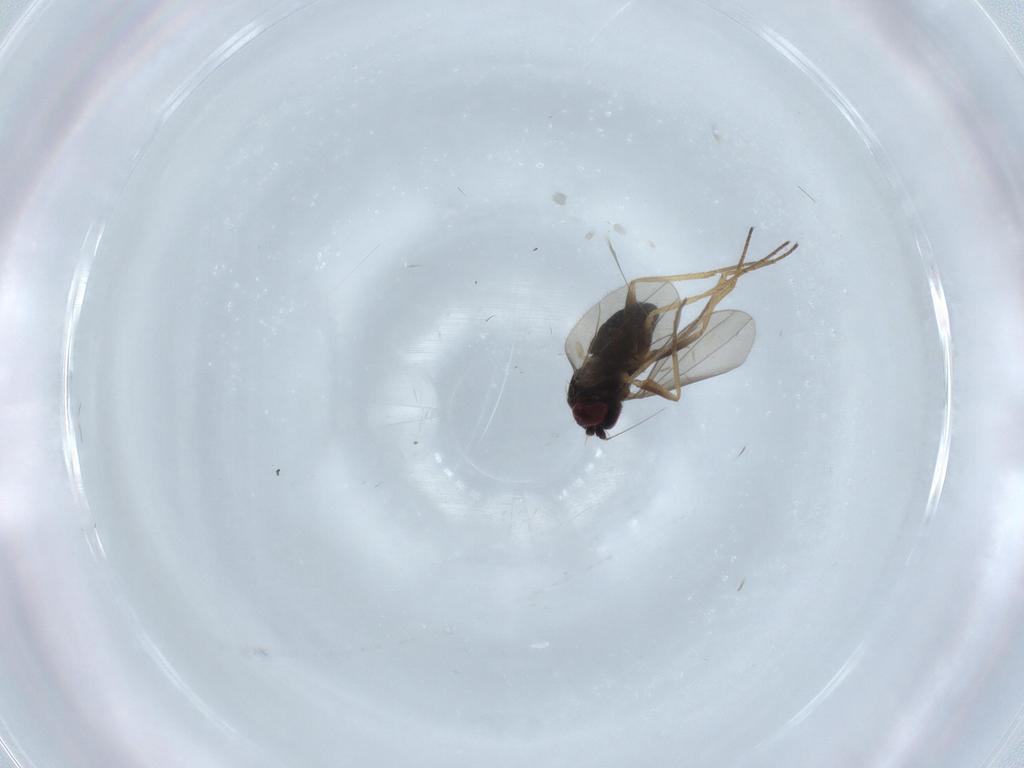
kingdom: Animalia
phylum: Arthropoda
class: Insecta
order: Diptera
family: Dolichopodidae
